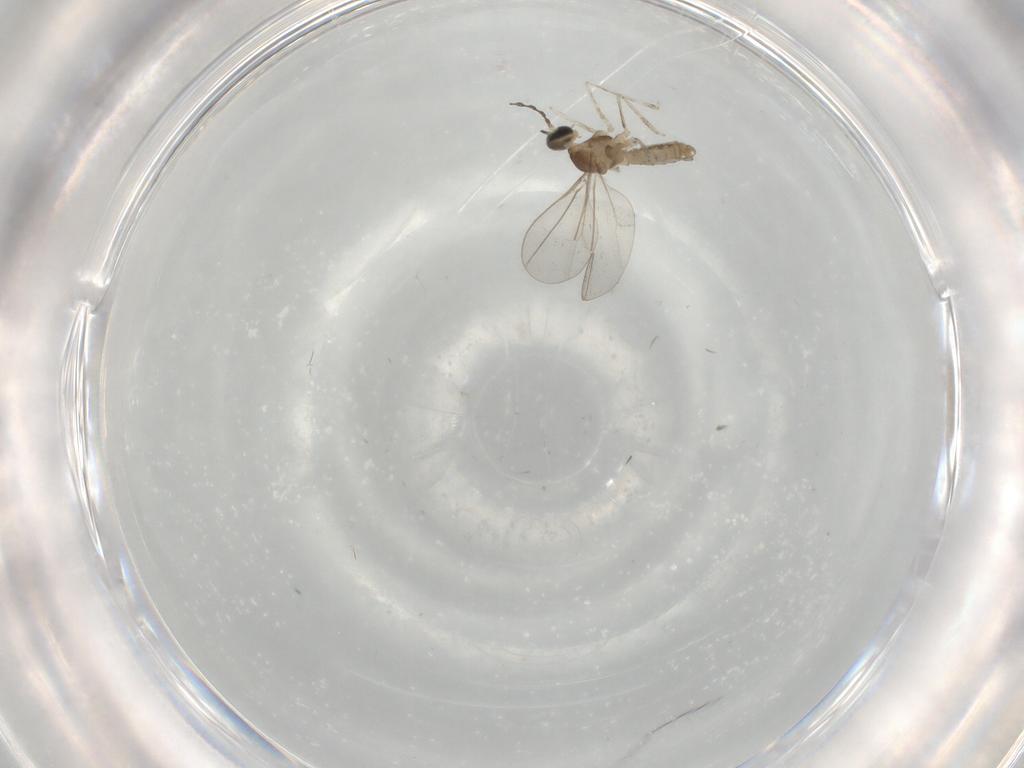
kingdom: Animalia
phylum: Arthropoda
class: Insecta
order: Diptera
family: Cecidomyiidae
